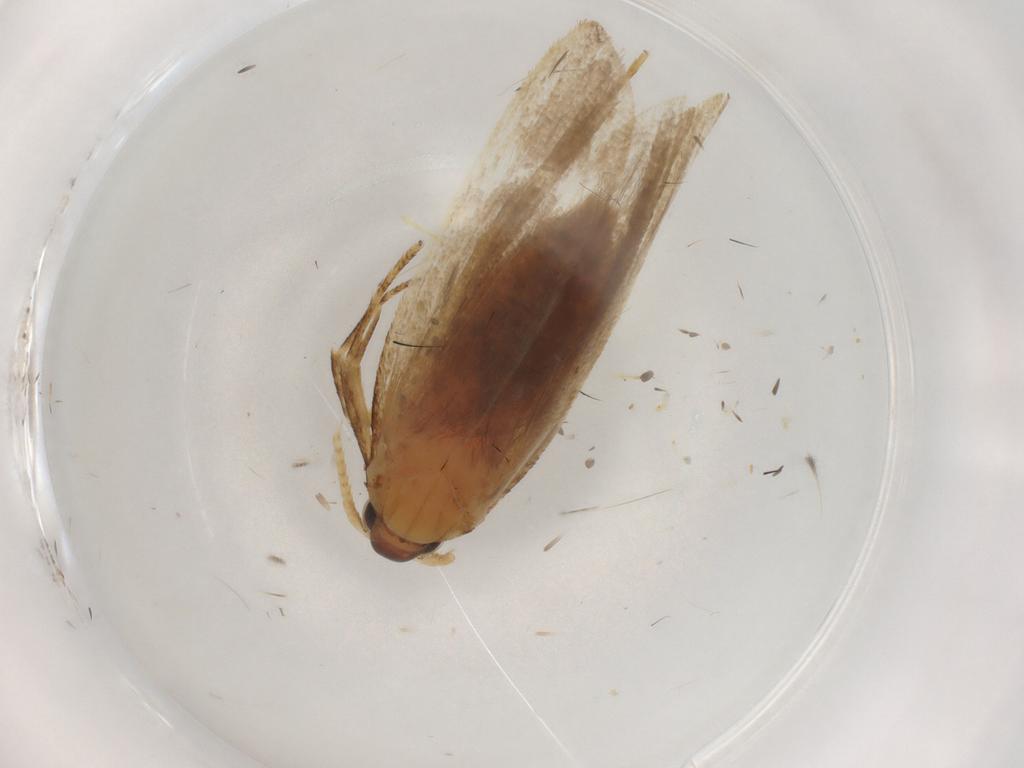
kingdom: Animalia
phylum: Arthropoda
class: Insecta
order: Lepidoptera
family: Lecithoceridae
